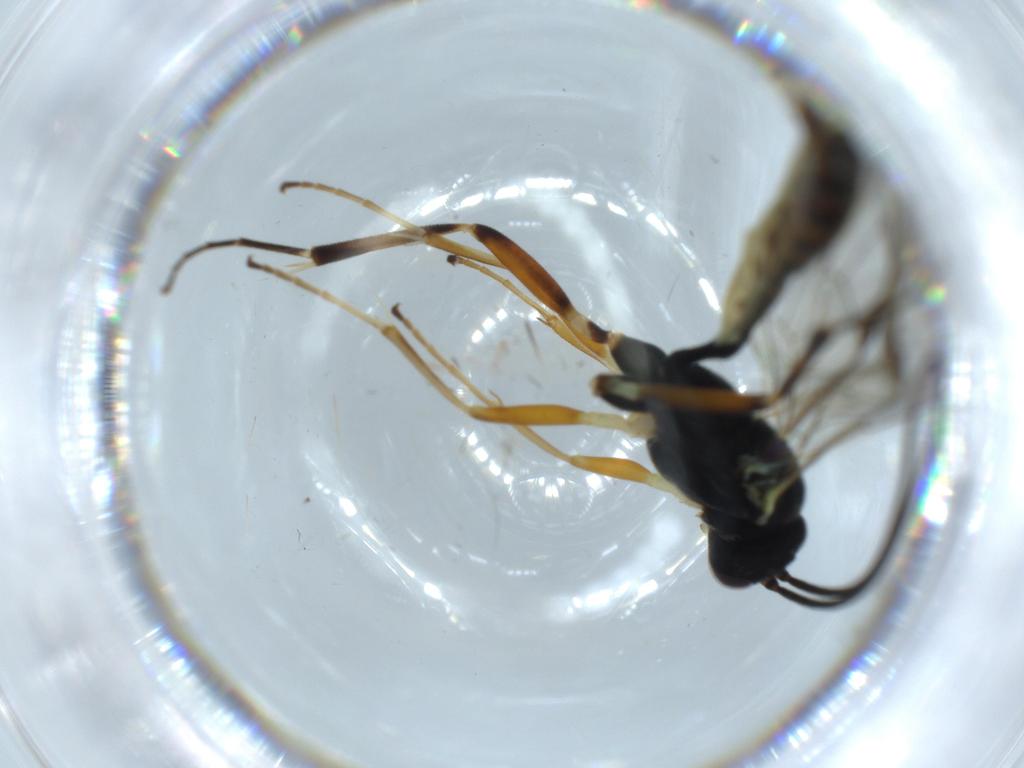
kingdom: Animalia
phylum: Arthropoda
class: Insecta
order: Hymenoptera
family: Ichneumonidae
